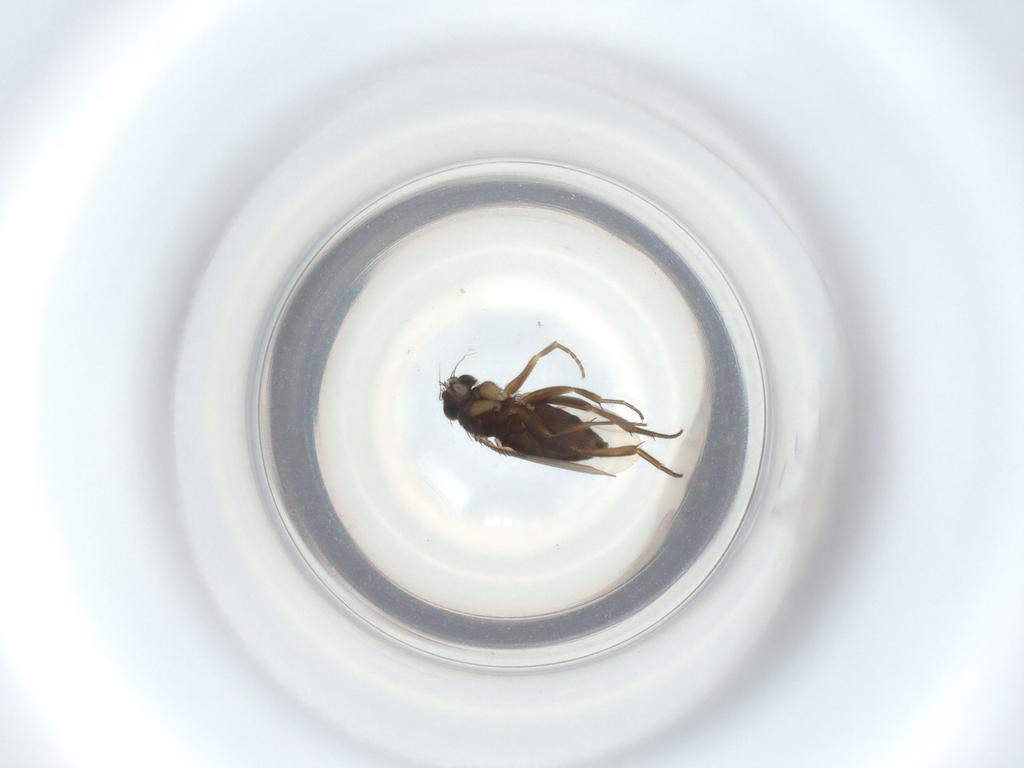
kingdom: Animalia
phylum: Arthropoda
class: Insecta
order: Diptera
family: Phoridae
